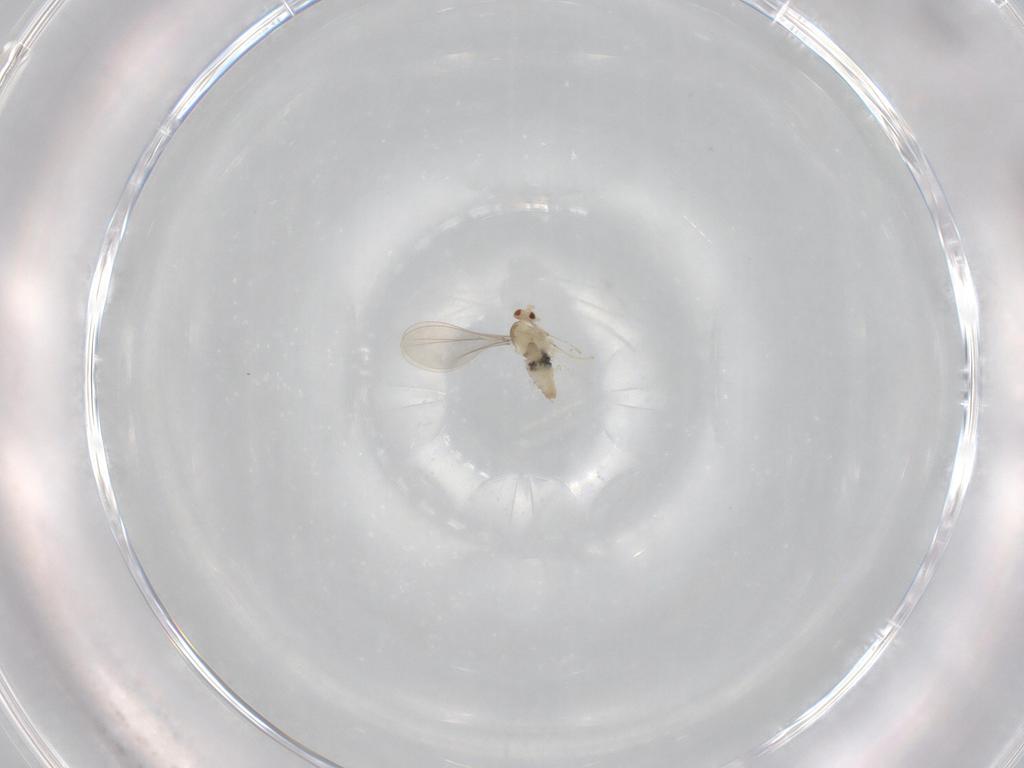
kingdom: Animalia
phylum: Arthropoda
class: Insecta
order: Diptera
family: Cecidomyiidae
